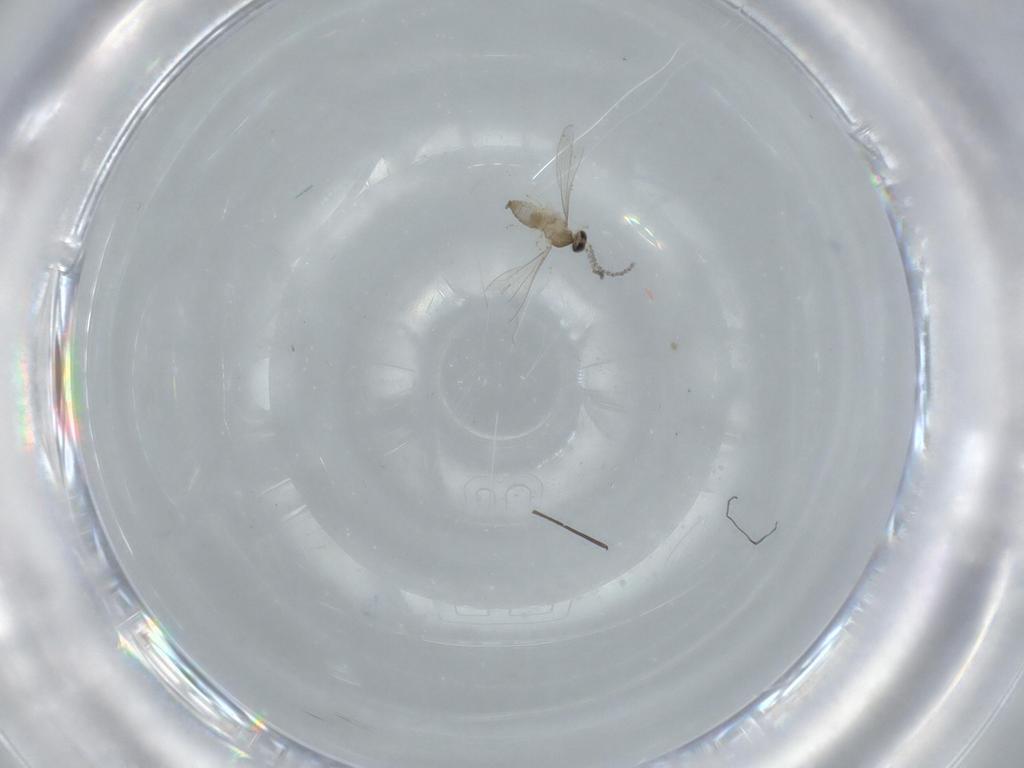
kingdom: Animalia
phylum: Arthropoda
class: Insecta
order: Diptera
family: Cecidomyiidae
